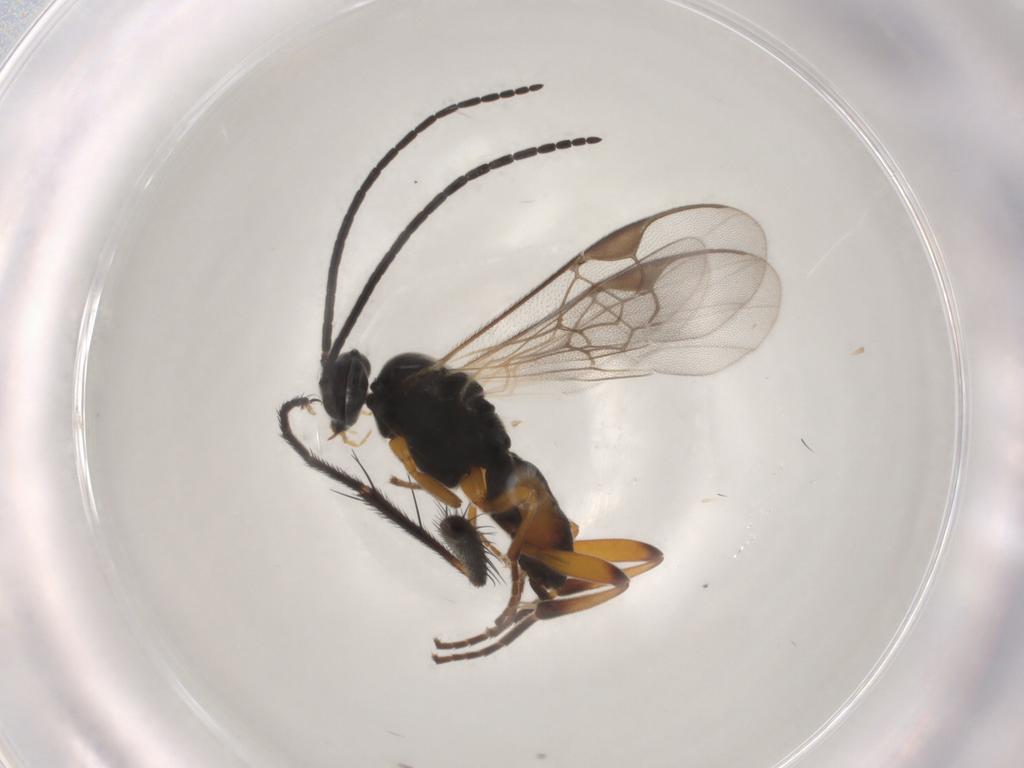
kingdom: Animalia
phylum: Arthropoda
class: Insecta
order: Hymenoptera
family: Braconidae
